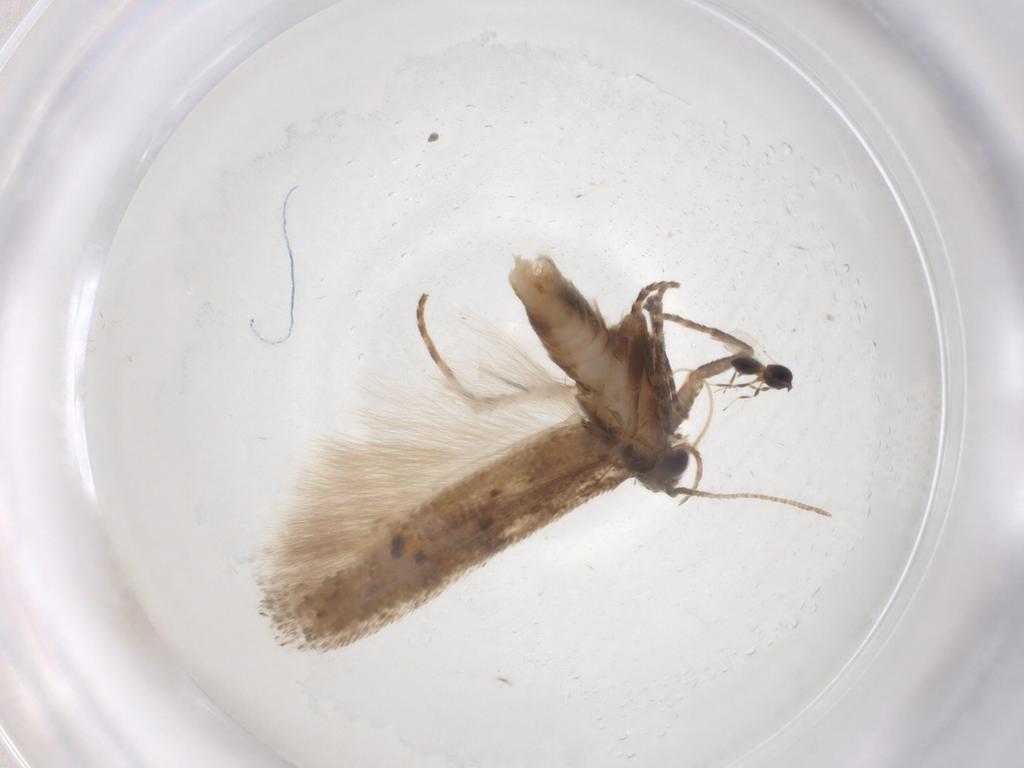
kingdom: Animalia
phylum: Arthropoda
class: Insecta
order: Lepidoptera
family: Gelechiidae
